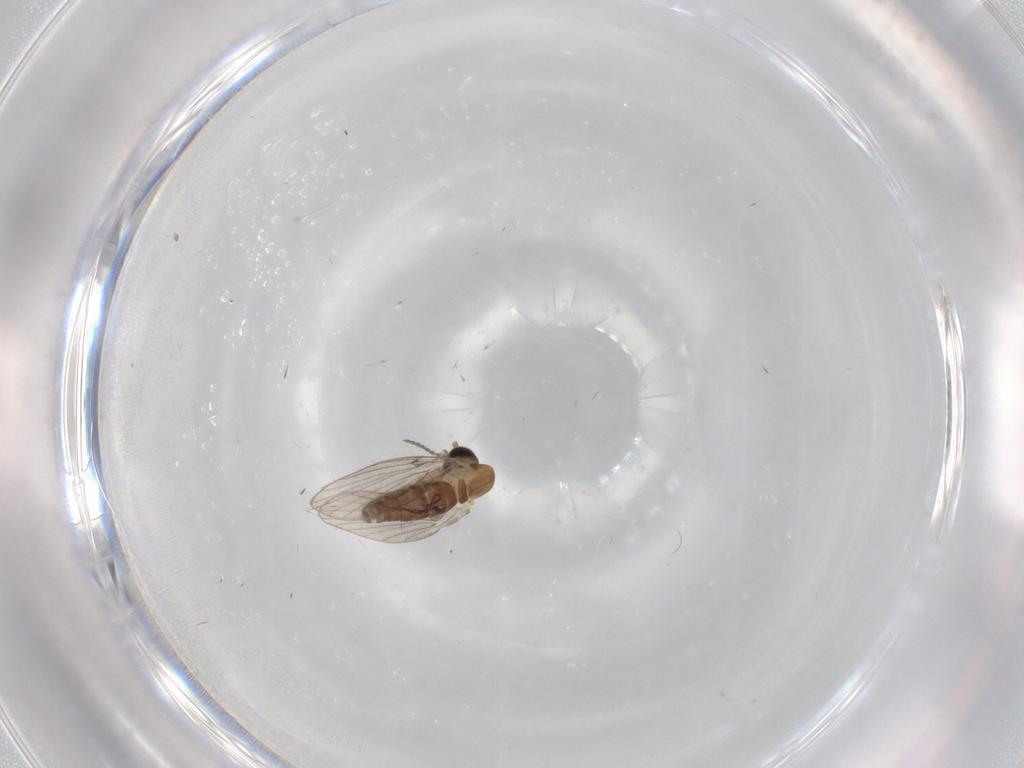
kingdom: Animalia
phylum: Arthropoda
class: Insecta
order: Diptera
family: Psychodidae
